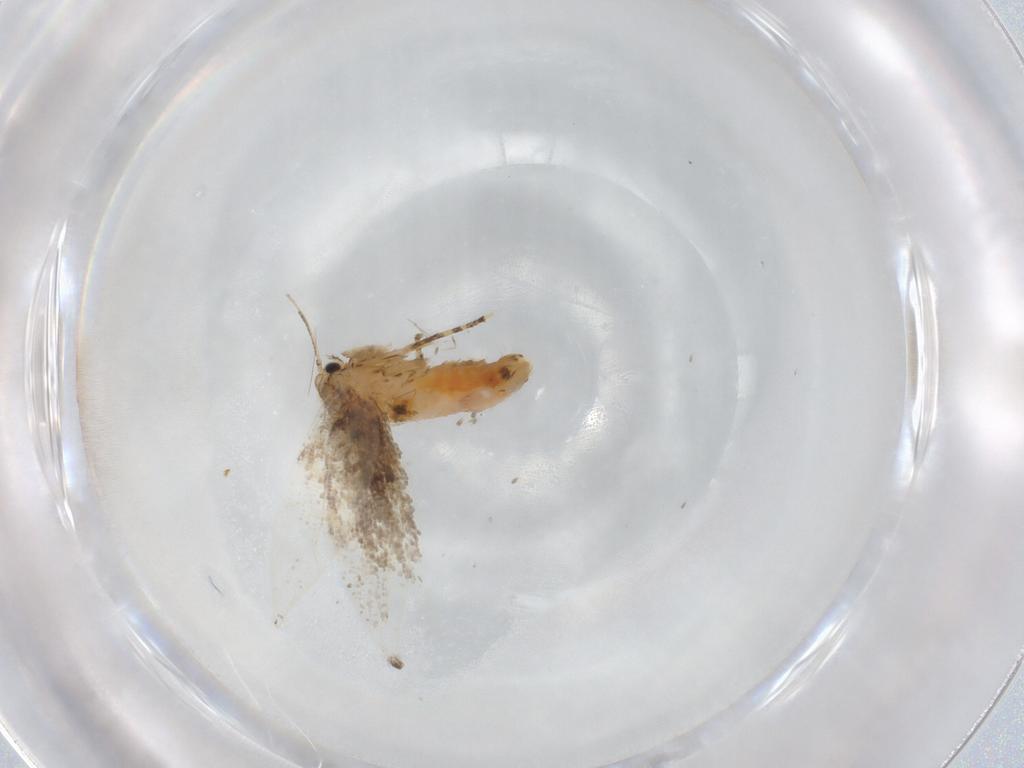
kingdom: Animalia
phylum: Arthropoda
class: Insecta
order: Lepidoptera
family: Incurvariidae
